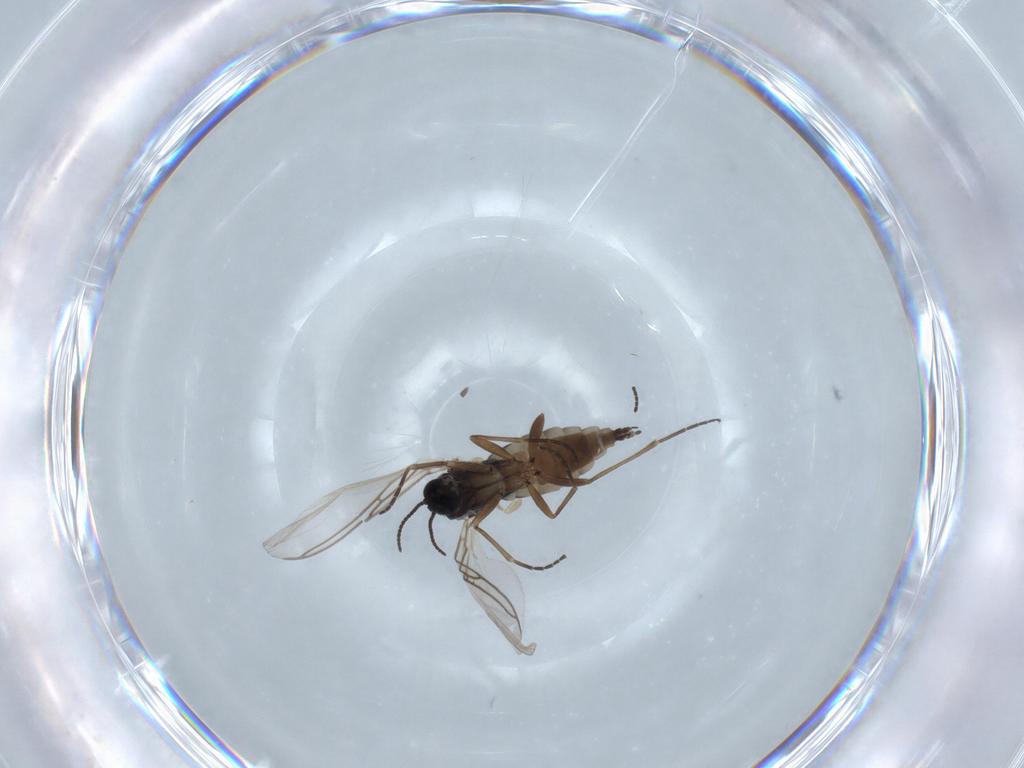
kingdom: Animalia
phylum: Arthropoda
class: Insecta
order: Diptera
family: Sciaridae
